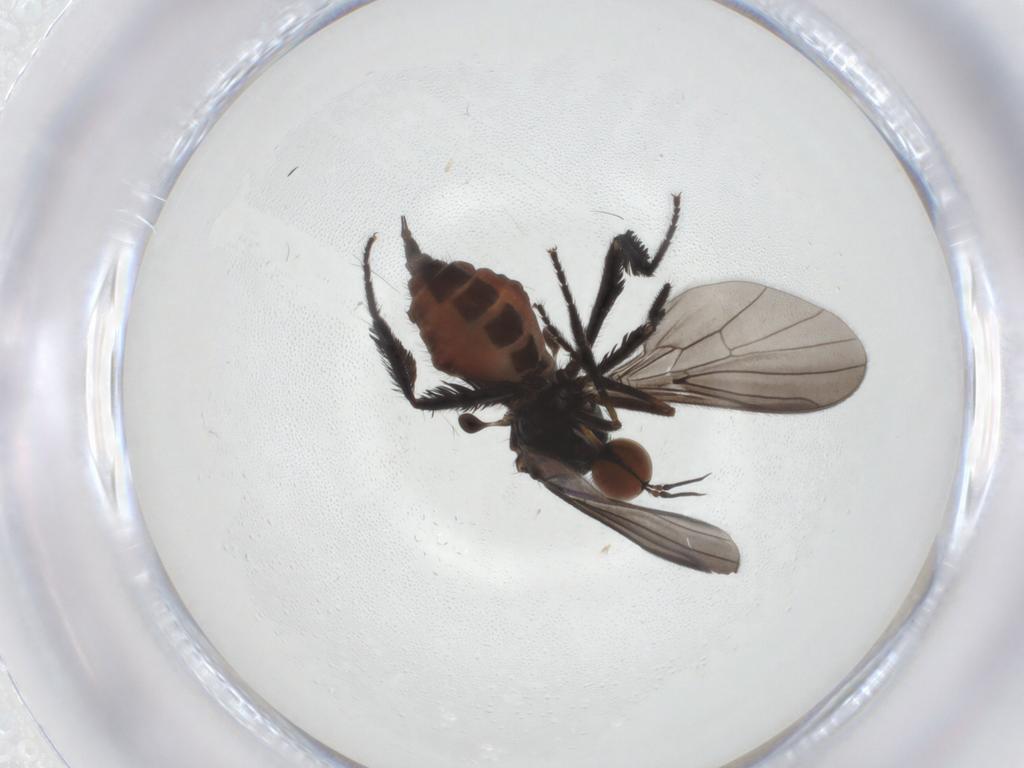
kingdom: Animalia
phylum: Arthropoda
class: Insecta
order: Diptera
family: Empididae
